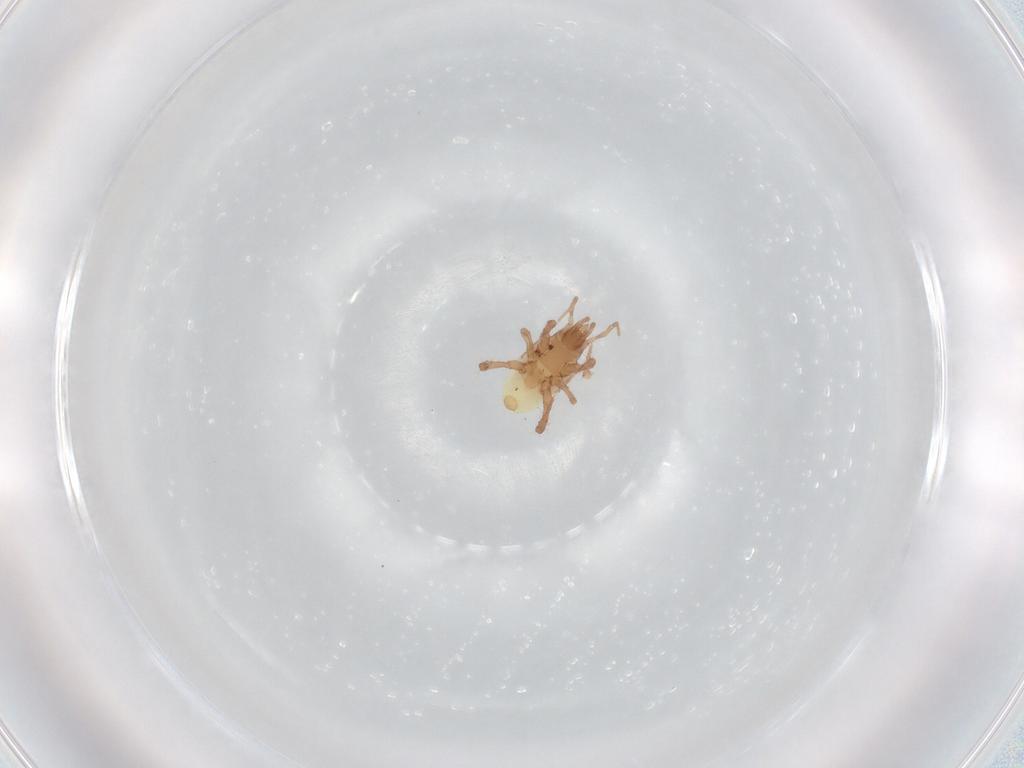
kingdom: Animalia
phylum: Arthropoda
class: Arachnida
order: Mesostigmata
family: Arctacaridae
